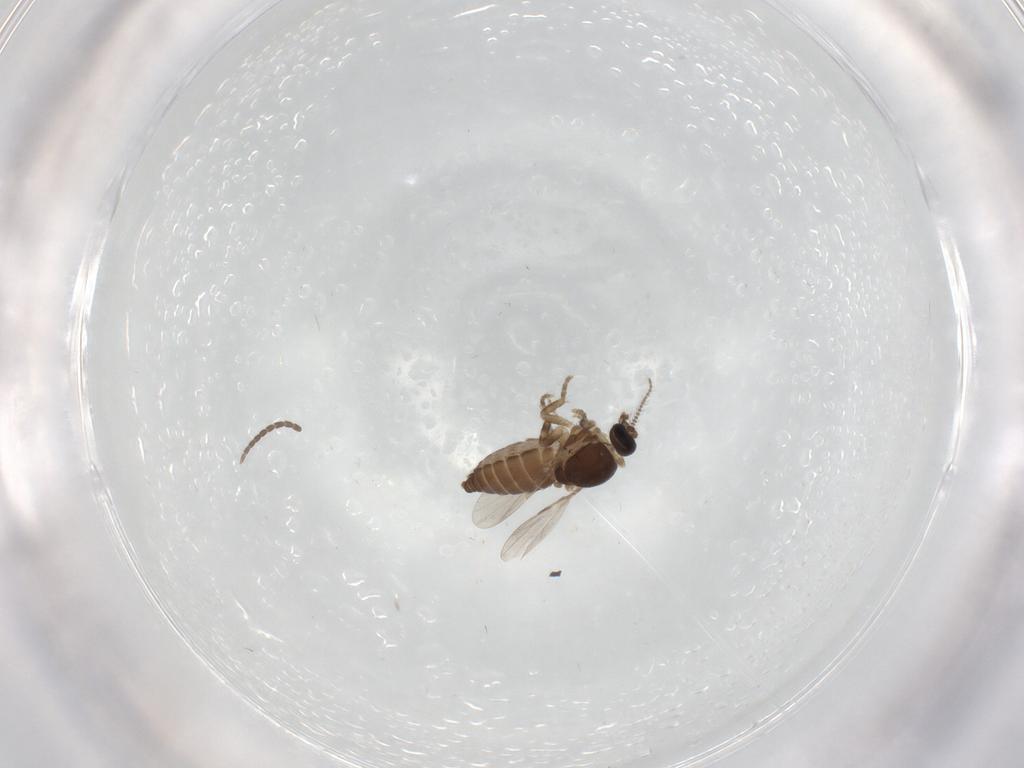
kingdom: Animalia
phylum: Arthropoda
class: Insecta
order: Diptera
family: Ceratopogonidae
